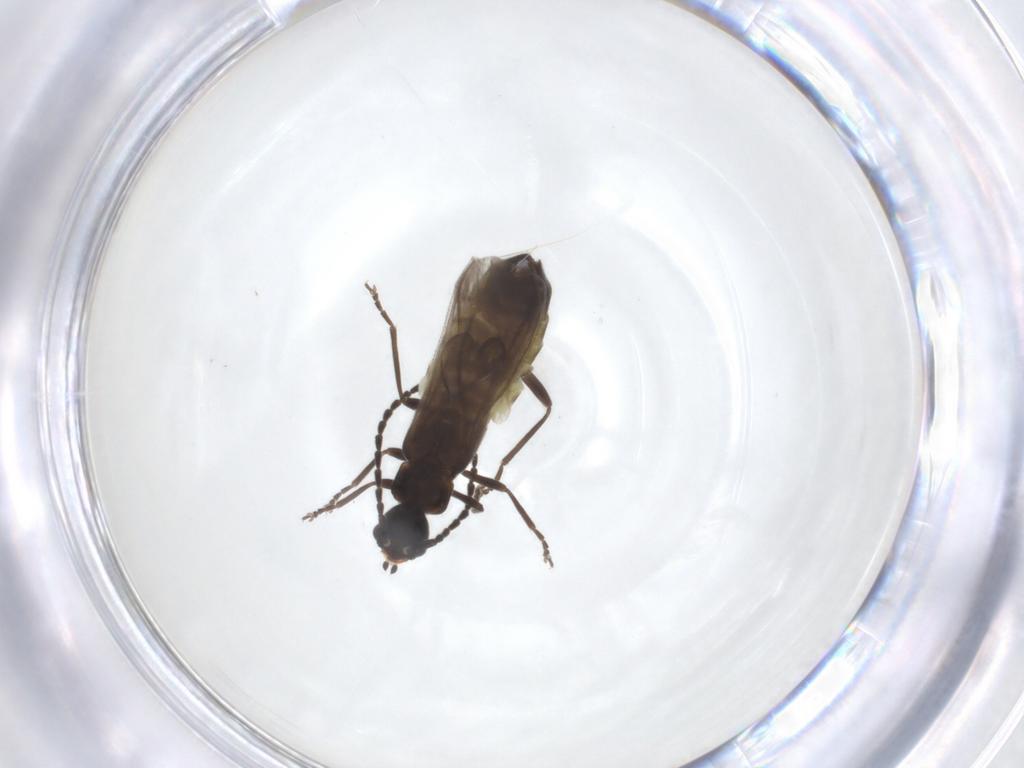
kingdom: Animalia
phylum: Arthropoda
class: Insecta
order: Coleoptera
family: Cantharidae
